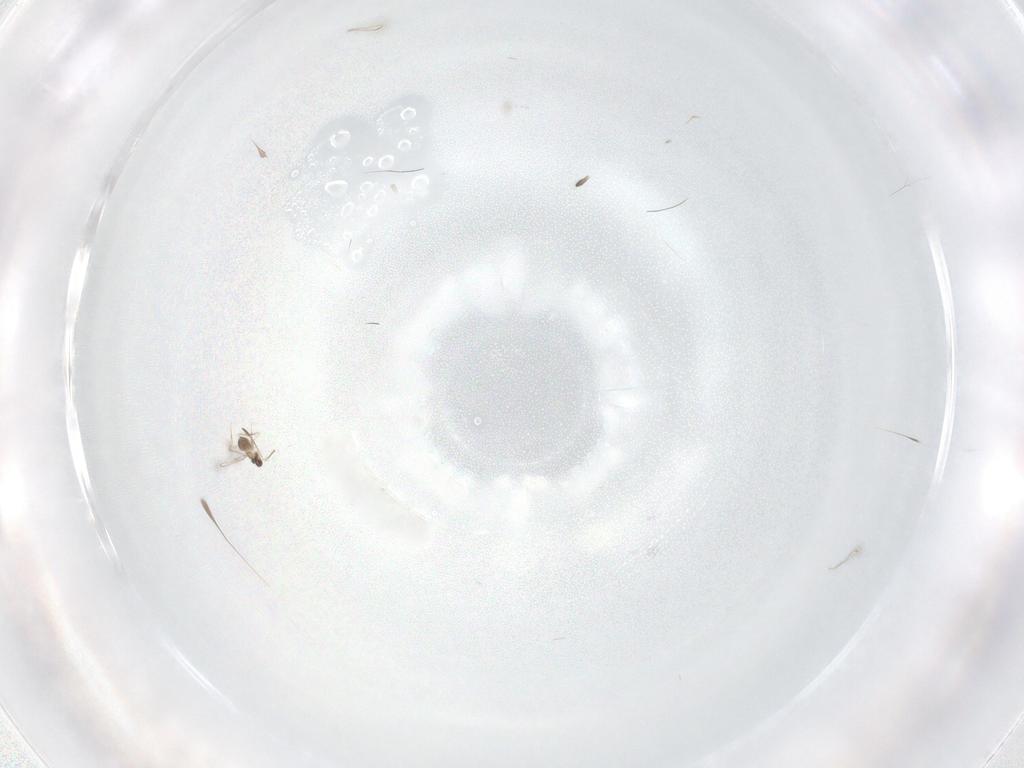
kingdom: Animalia
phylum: Arthropoda
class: Insecta
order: Hymenoptera
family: Mymaridae
